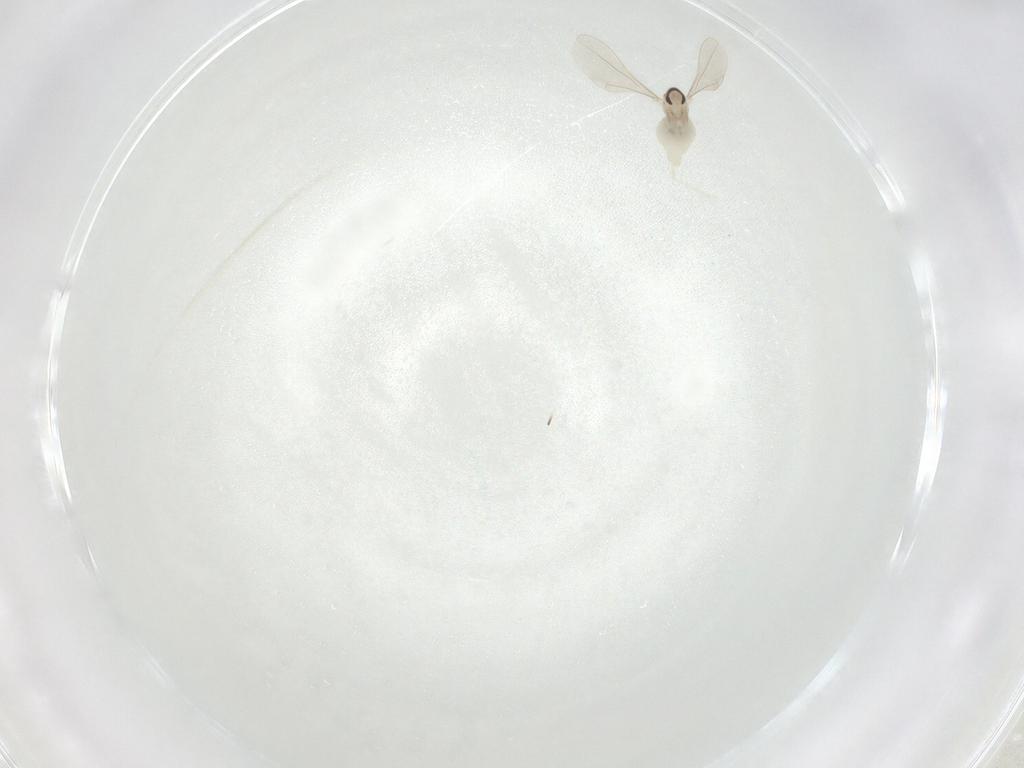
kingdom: Animalia
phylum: Arthropoda
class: Insecta
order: Diptera
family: Cecidomyiidae
